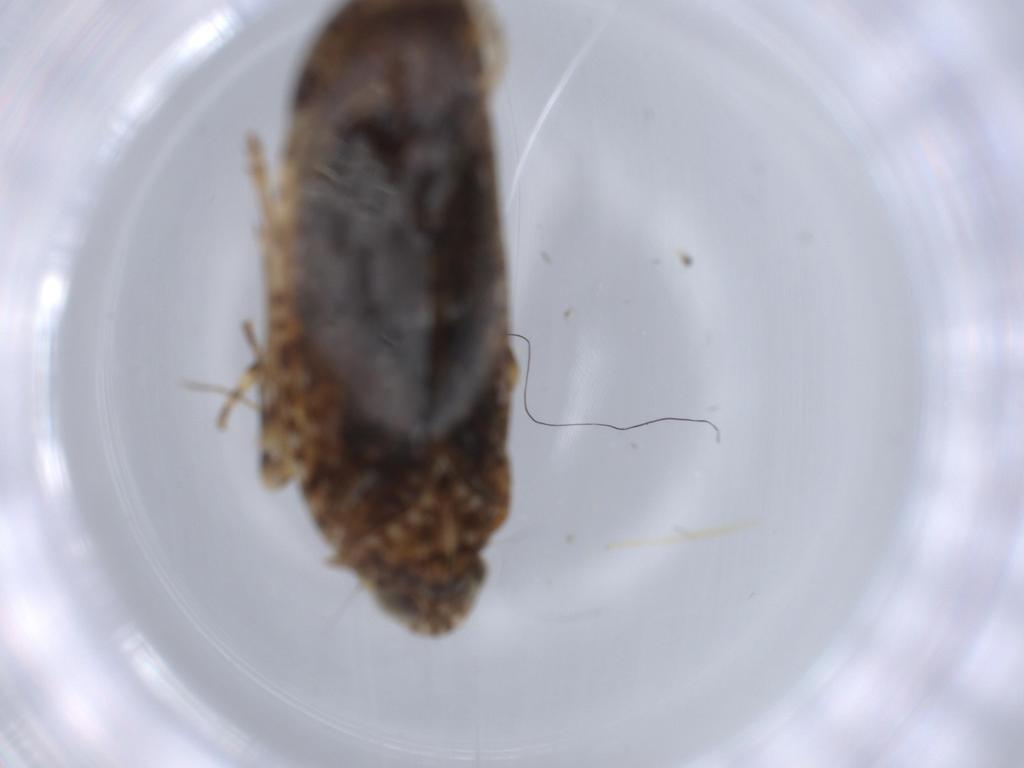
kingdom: Animalia
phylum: Arthropoda
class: Insecta
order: Hemiptera
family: Achilidae
